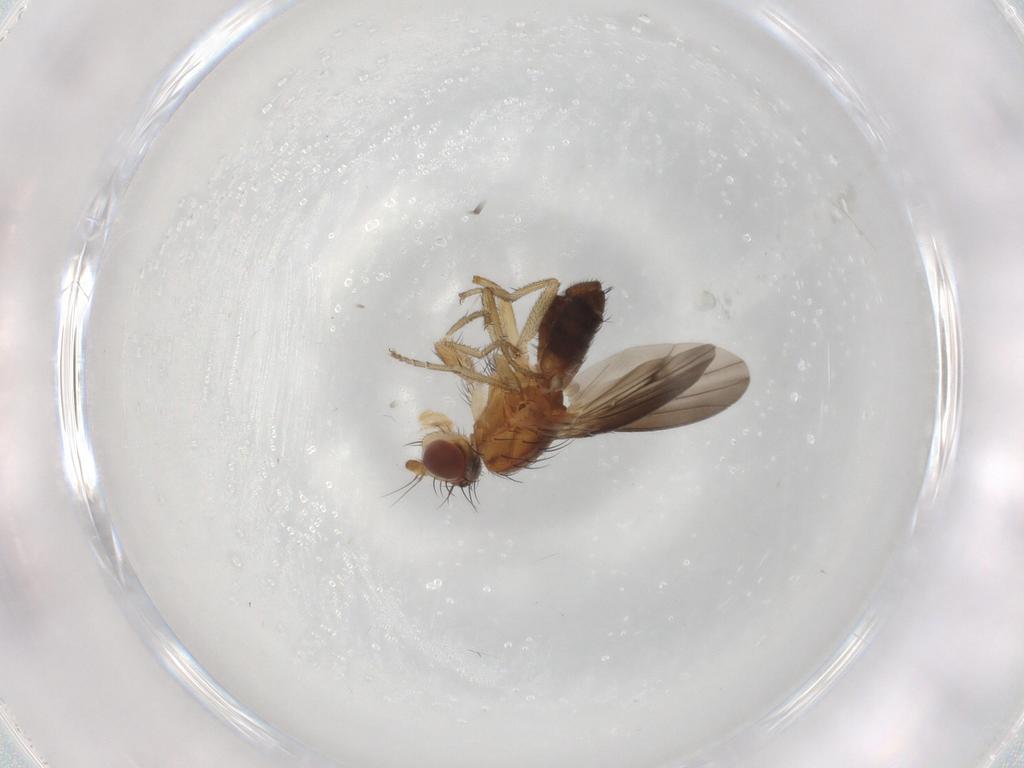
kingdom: Animalia
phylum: Arthropoda
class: Insecta
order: Diptera
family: Heleomyzidae
